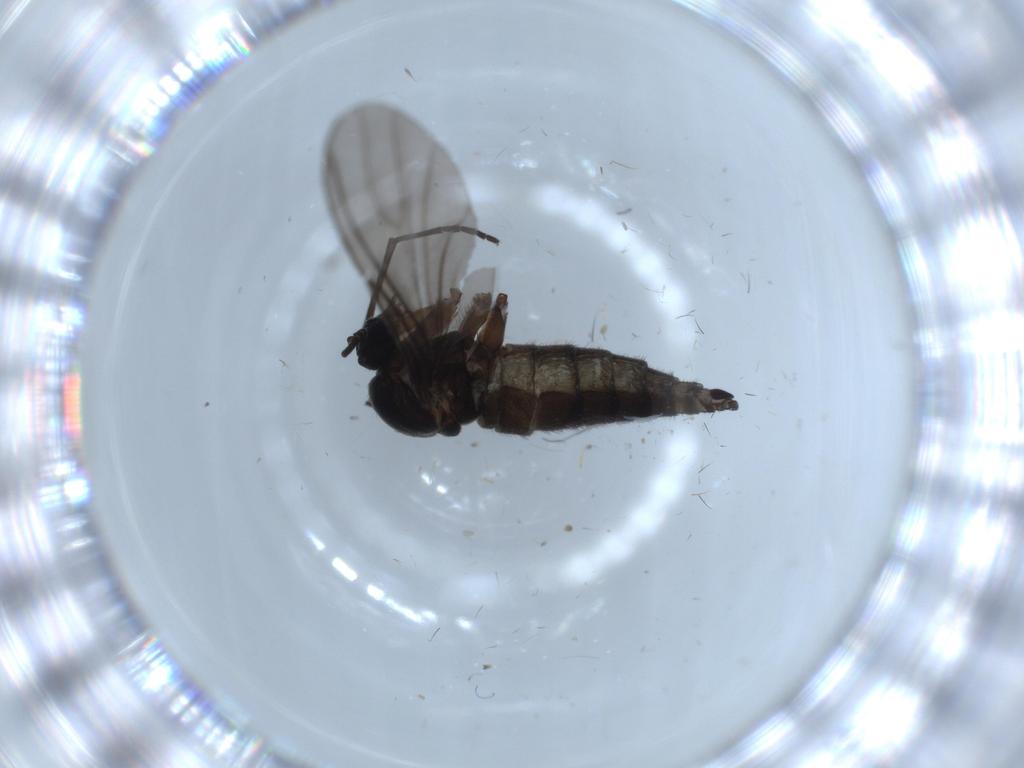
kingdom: Animalia
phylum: Arthropoda
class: Insecta
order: Diptera
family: Sciaridae
